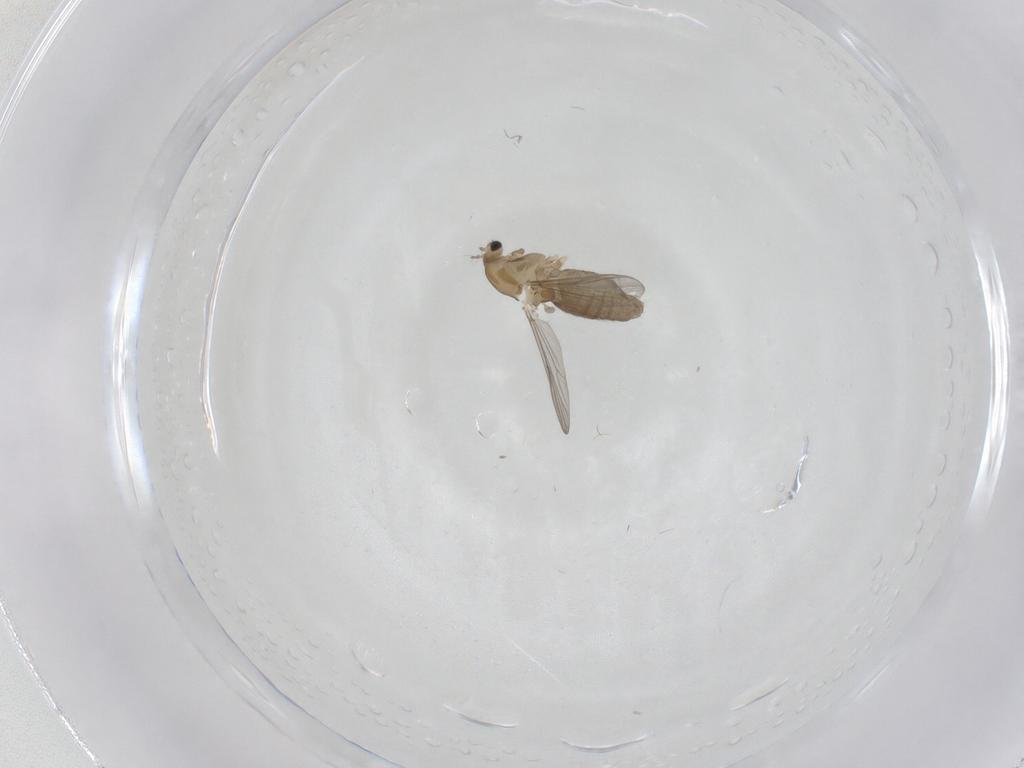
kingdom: Animalia
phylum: Arthropoda
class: Insecta
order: Diptera
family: Chironomidae
